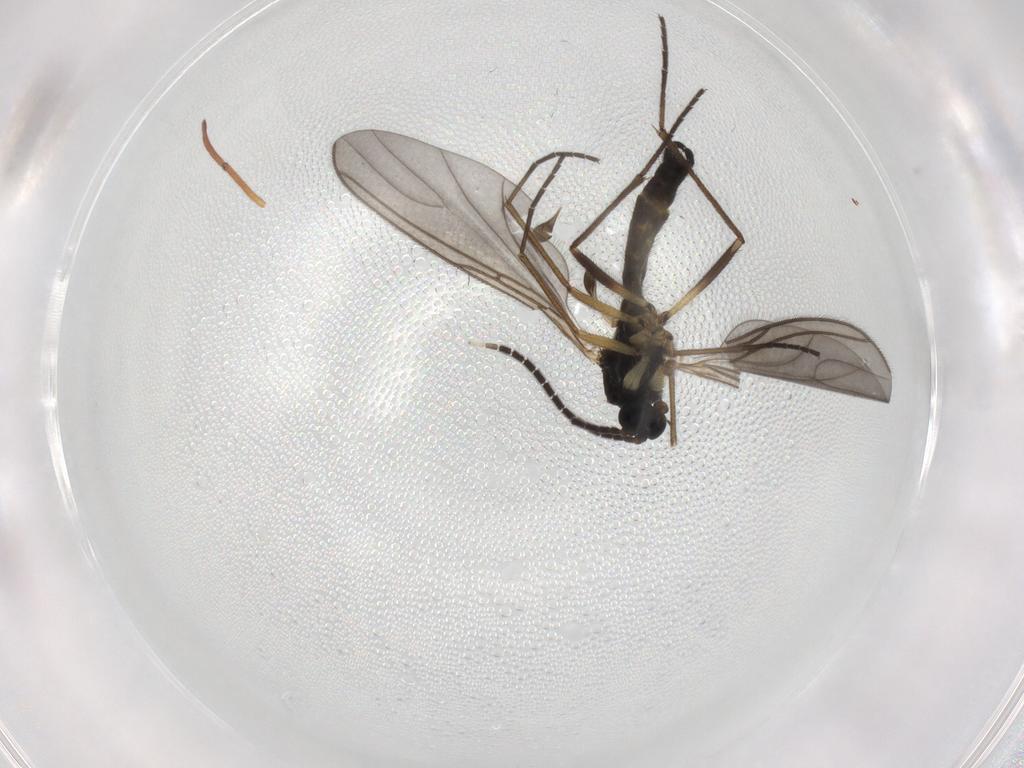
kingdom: Animalia
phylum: Arthropoda
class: Insecta
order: Diptera
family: Sciaridae
